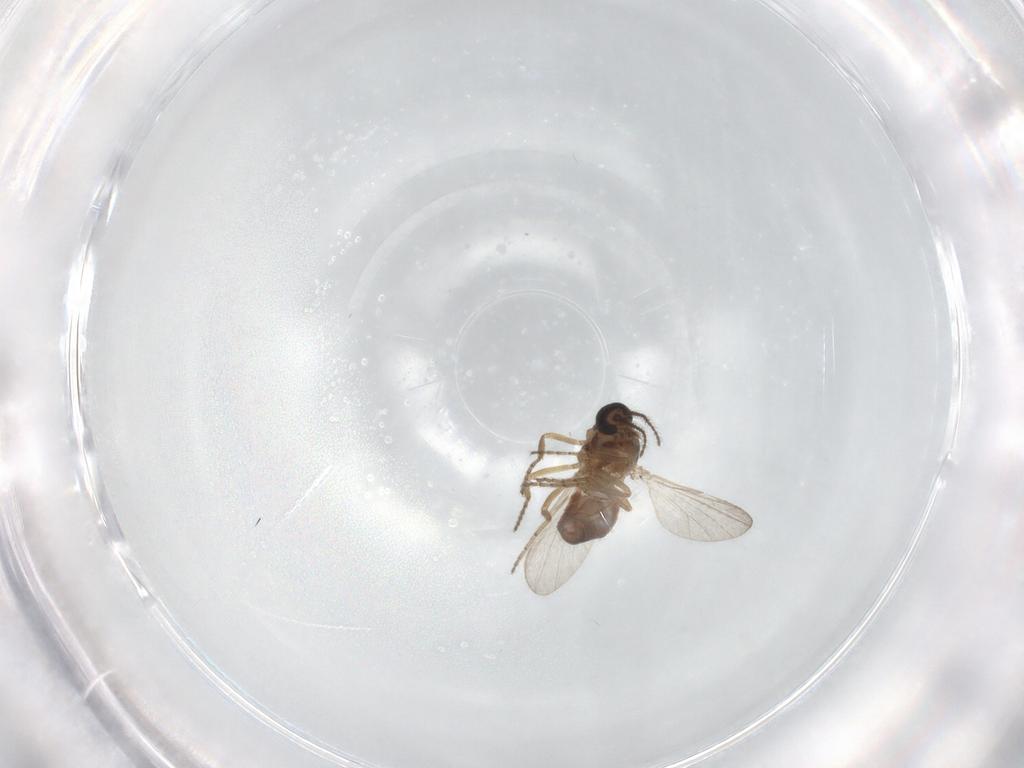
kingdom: Animalia
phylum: Arthropoda
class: Insecta
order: Diptera
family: Ceratopogonidae
